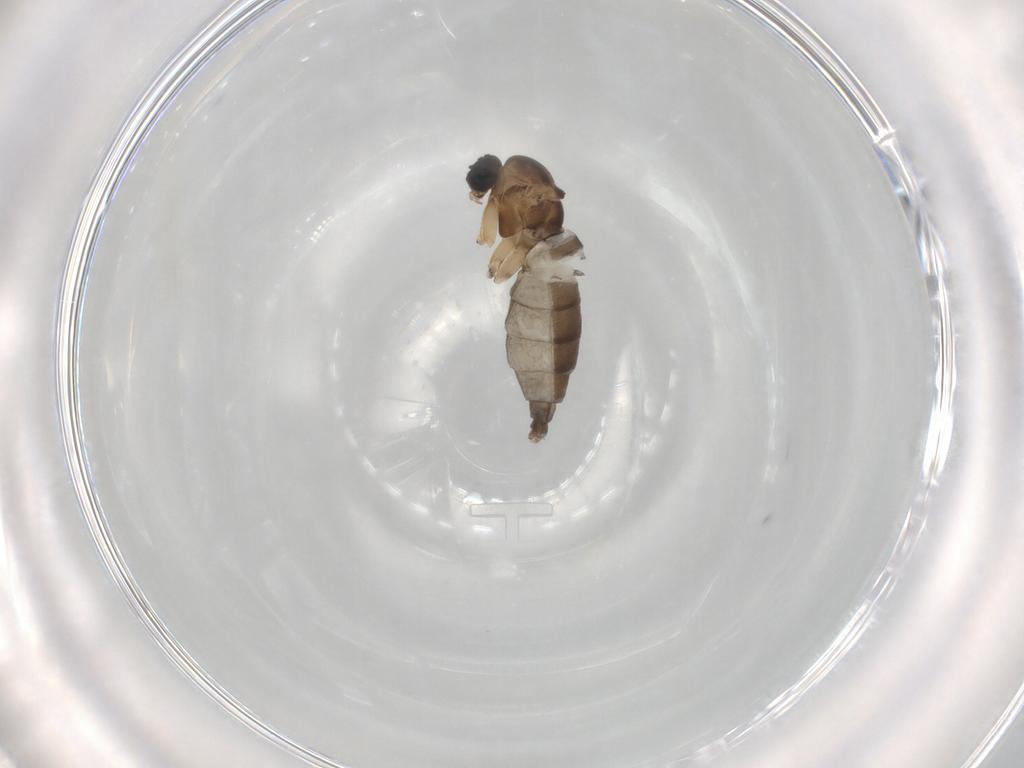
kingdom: Animalia
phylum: Arthropoda
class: Insecta
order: Diptera
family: Sciaridae
